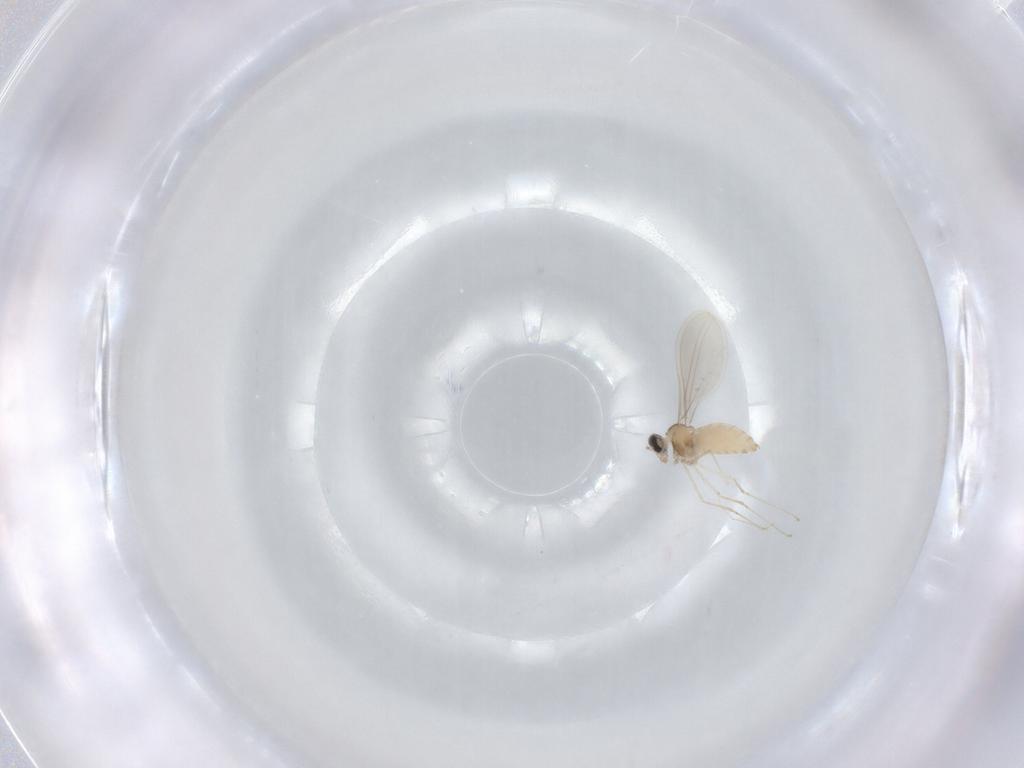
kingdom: Animalia
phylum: Arthropoda
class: Insecta
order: Diptera
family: Cecidomyiidae
